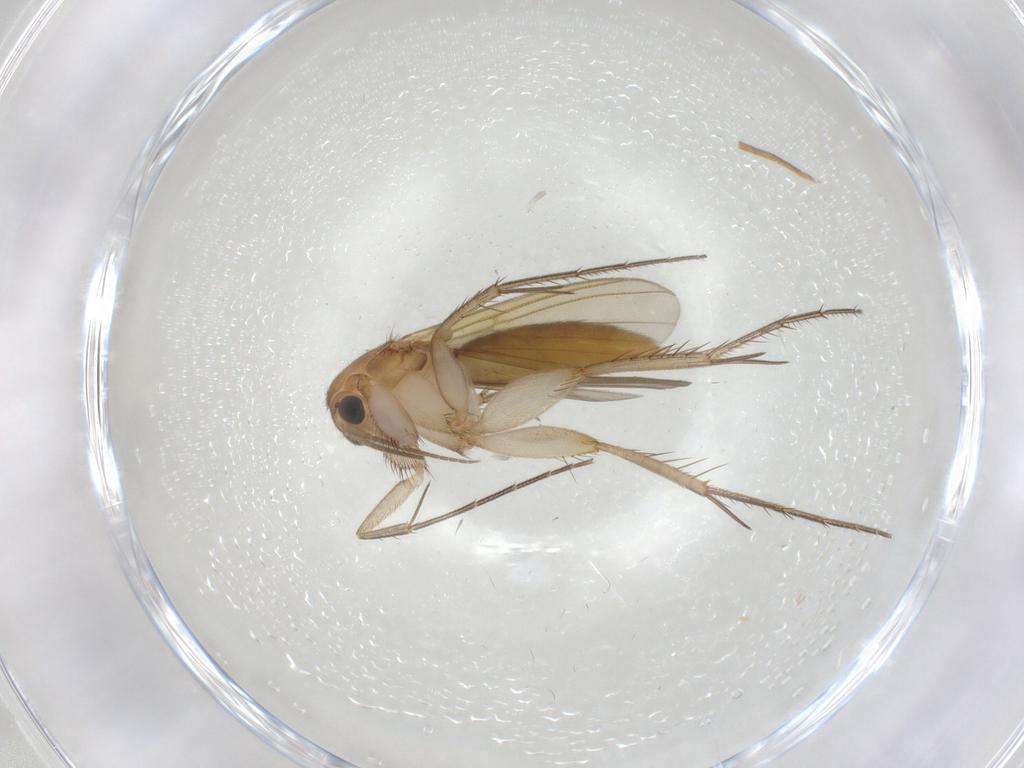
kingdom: Animalia
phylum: Arthropoda
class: Insecta
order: Diptera
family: Mycetophilidae
